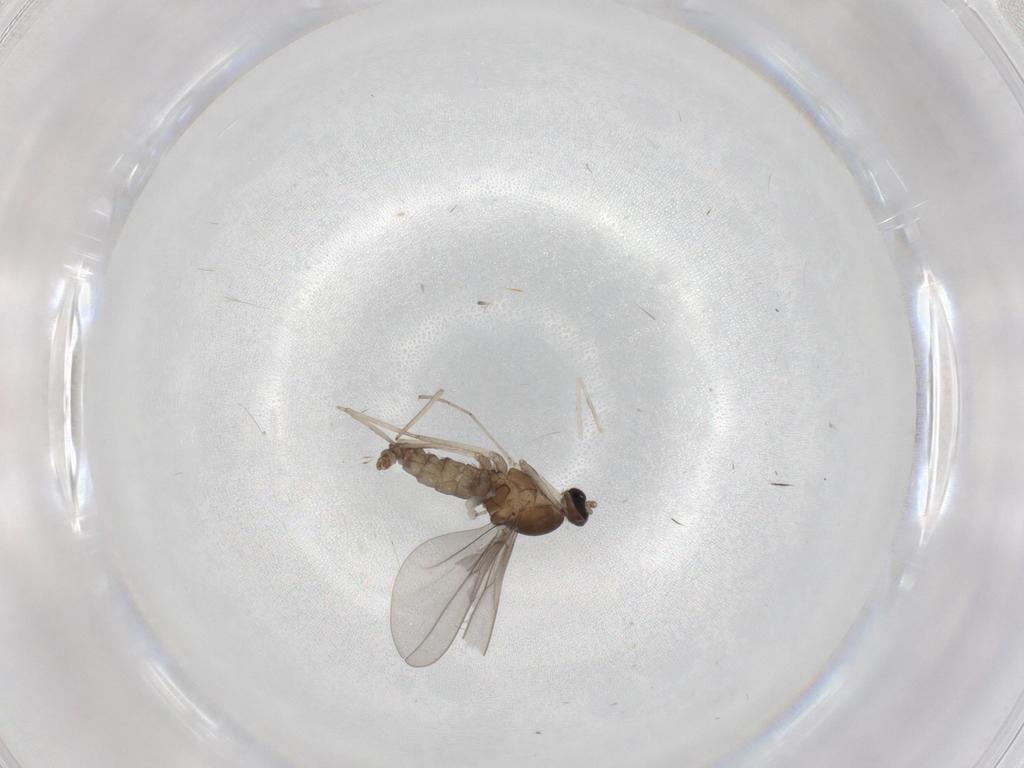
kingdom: Animalia
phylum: Arthropoda
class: Insecta
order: Diptera
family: Cecidomyiidae
